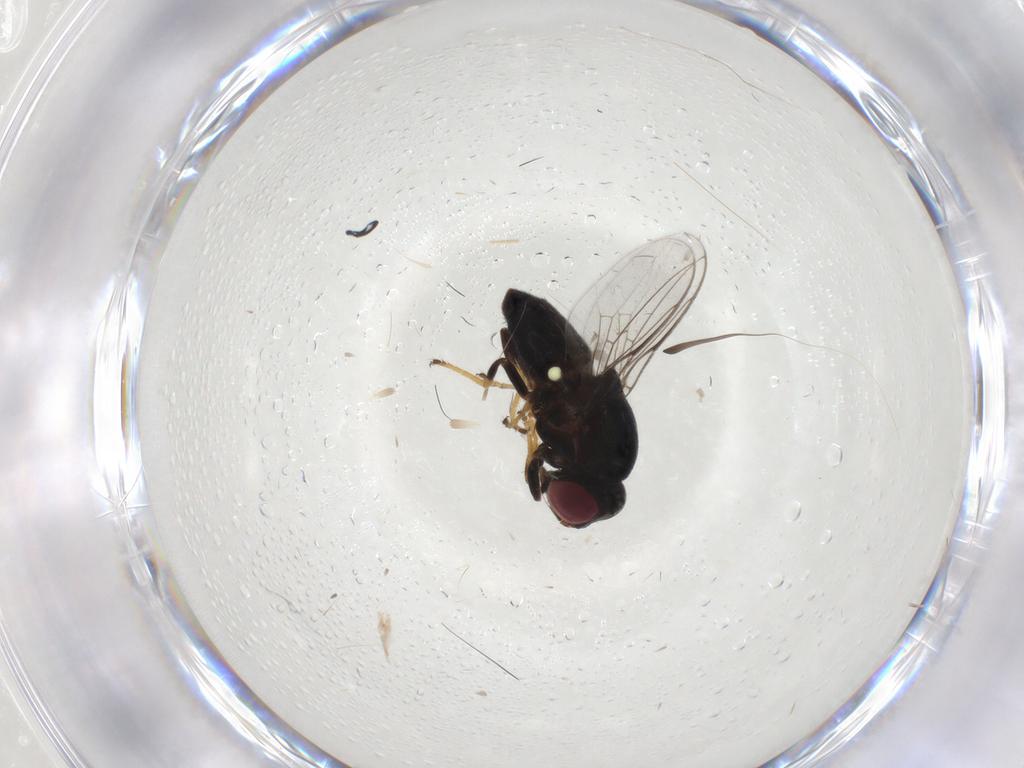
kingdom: Animalia
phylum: Arthropoda
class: Insecta
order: Diptera
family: Chloropidae
